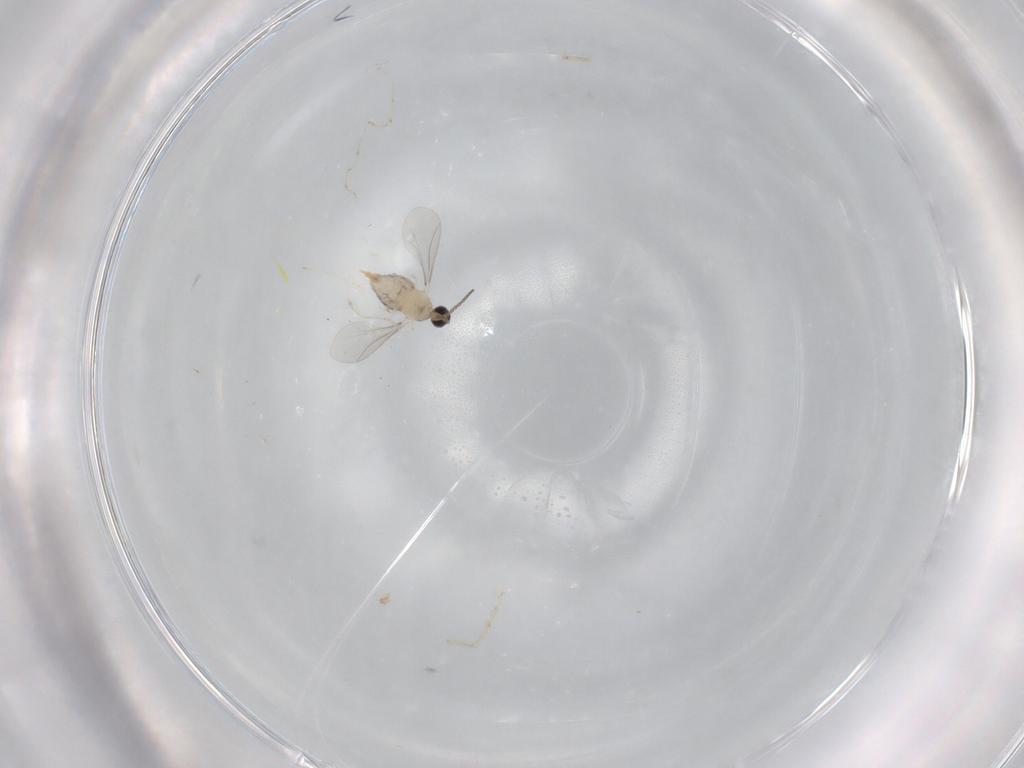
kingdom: Animalia
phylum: Arthropoda
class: Insecta
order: Diptera
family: Cecidomyiidae
